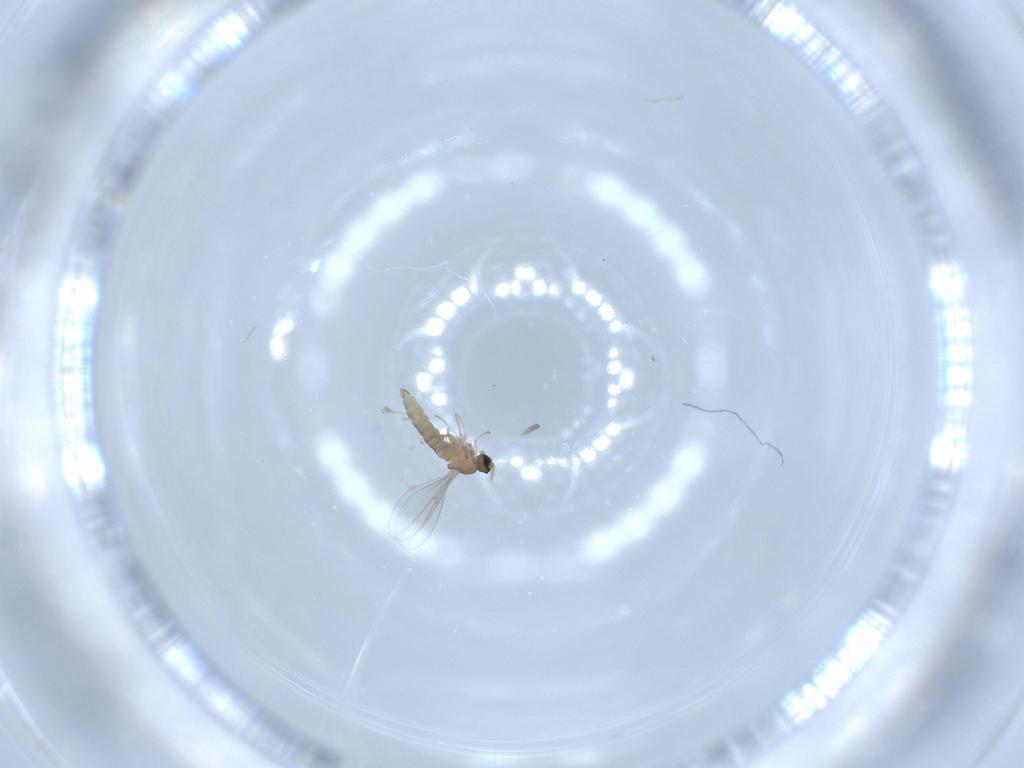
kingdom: Animalia
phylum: Arthropoda
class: Insecta
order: Diptera
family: Cecidomyiidae
